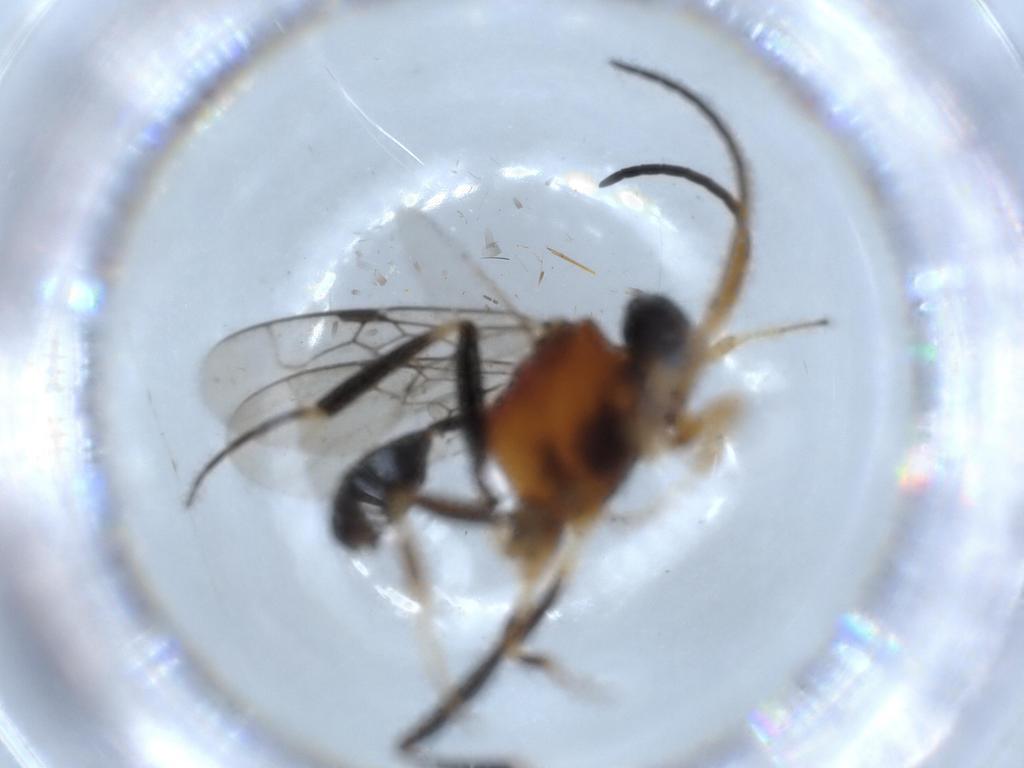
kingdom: Animalia
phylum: Arthropoda
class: Insecta
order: Hymenoptera
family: Evaniidae
